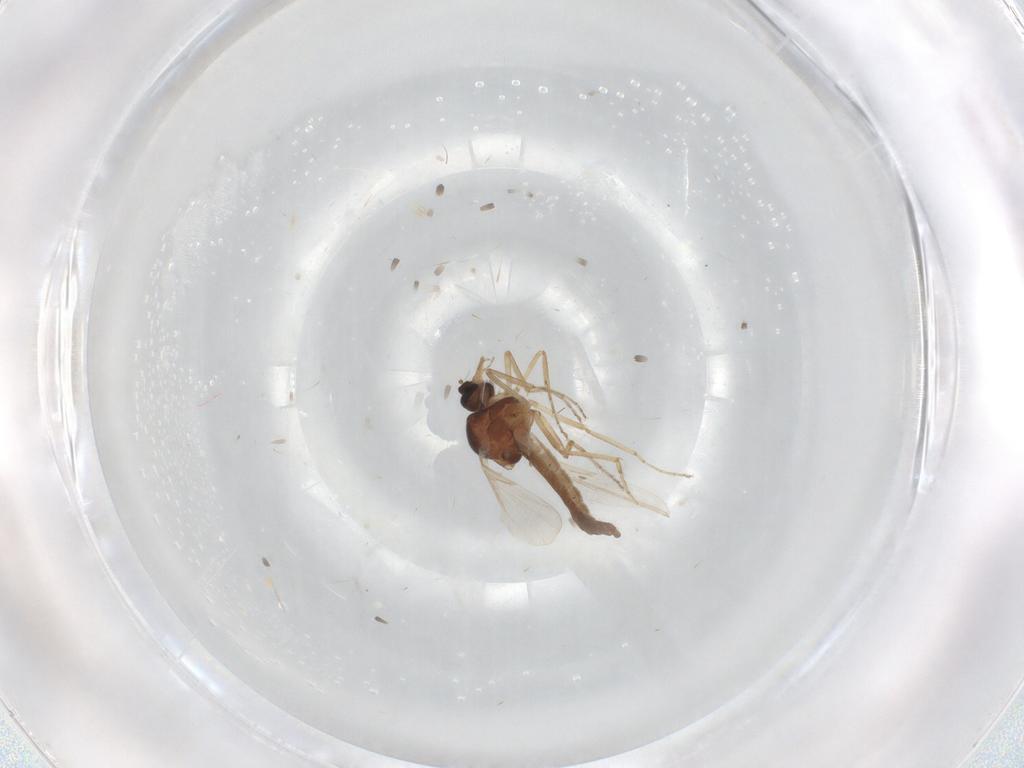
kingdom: Animalia
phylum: Arthropoda
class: Insecta
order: Diptera
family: Ceratopogonidae
